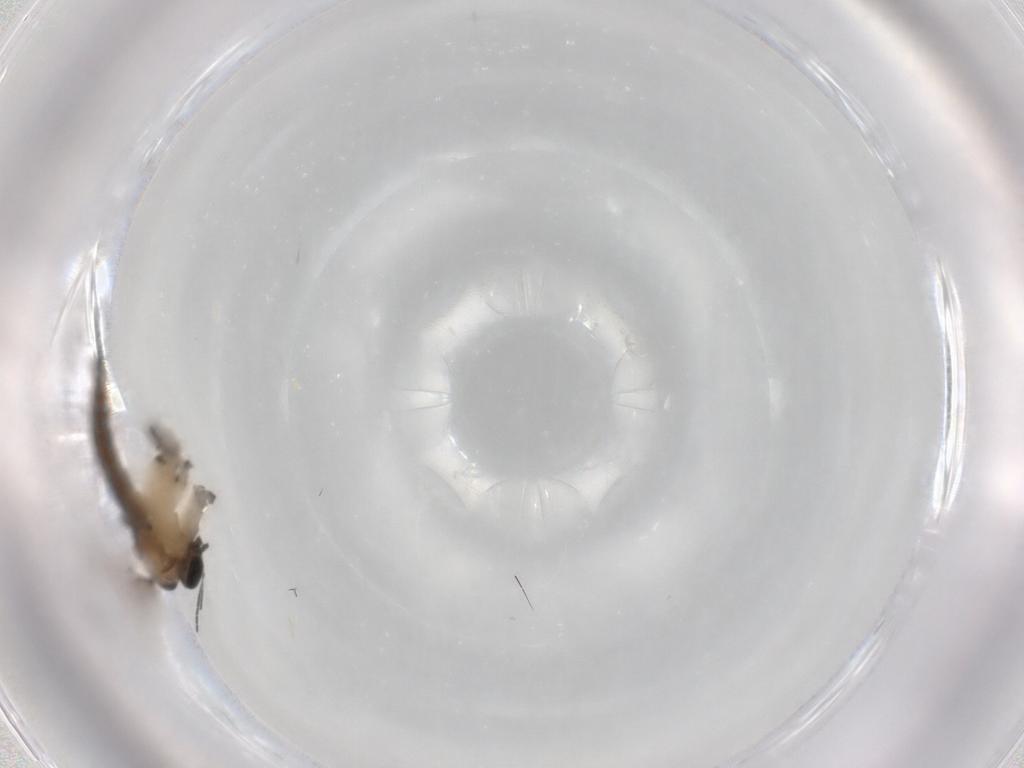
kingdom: Animalia
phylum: Arthropoda
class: Insecta
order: Diptera
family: Sciaridae
